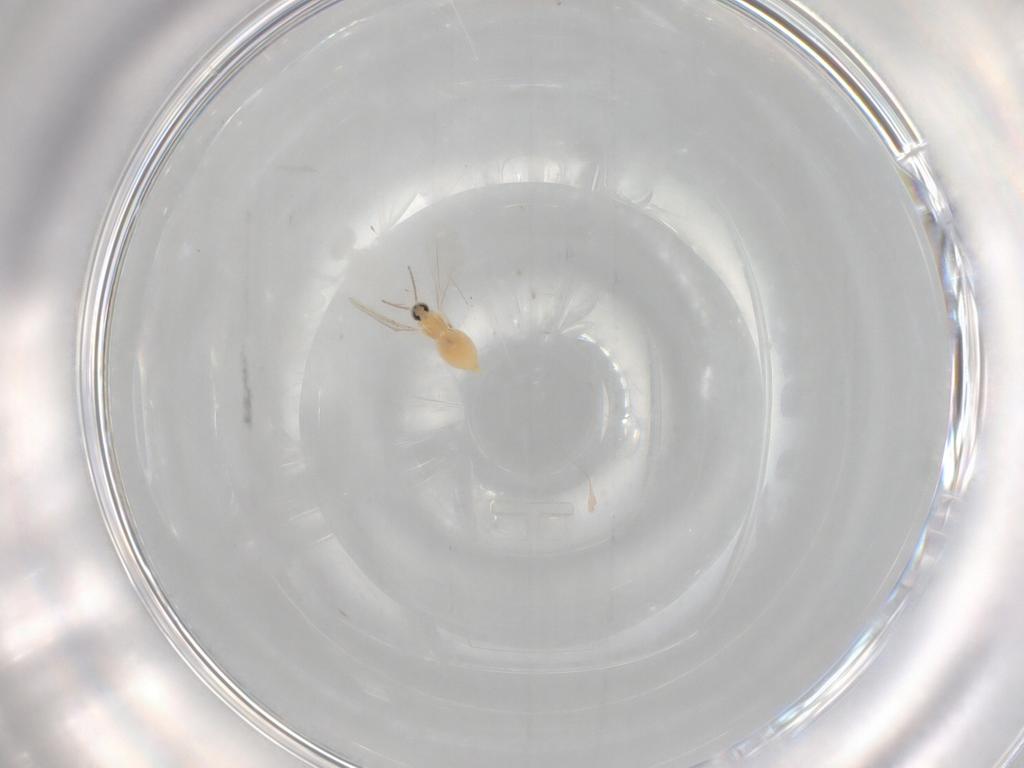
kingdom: Animalia
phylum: Arthropoda
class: Insecta
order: Diptera
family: Cecidomyiidae
